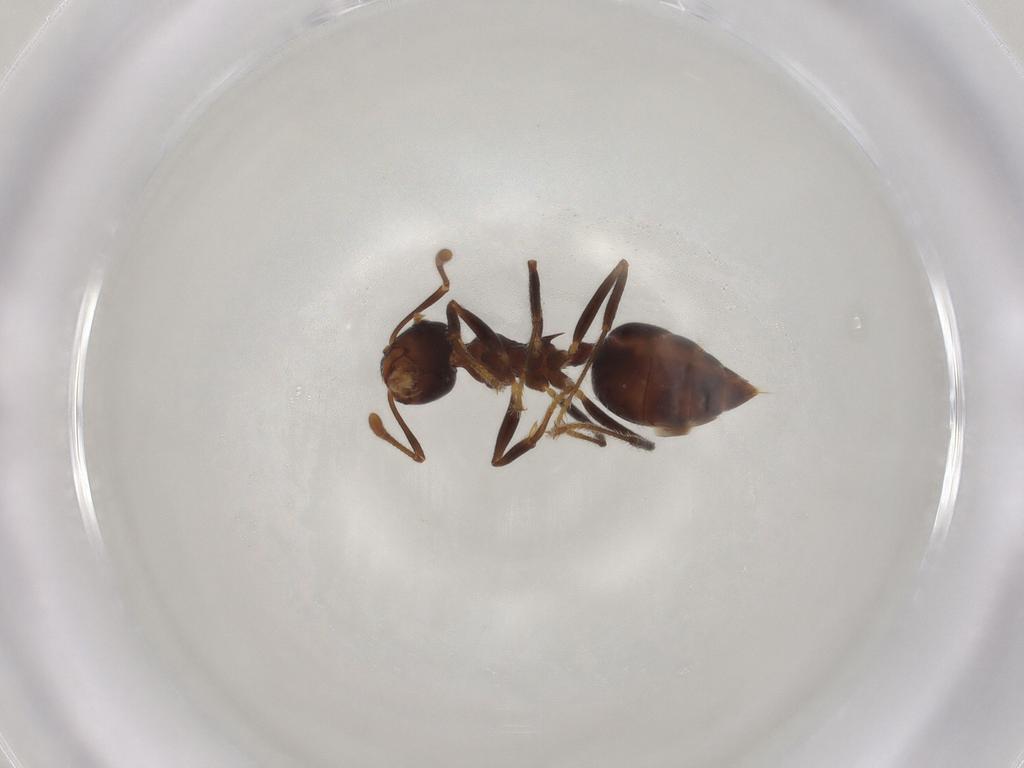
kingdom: Animalia
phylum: Arthropoda
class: Insecta
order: Hymenoptera
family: Formicidae
